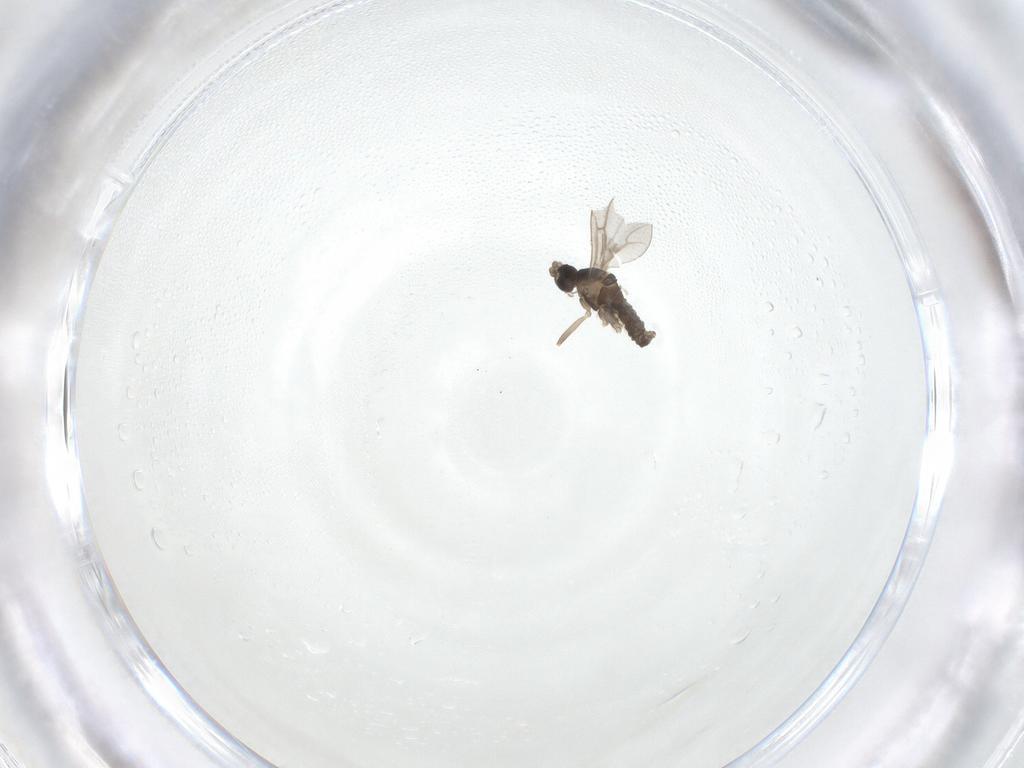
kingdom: Animalia
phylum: Arthropoda
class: Insecta
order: Diptera
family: Cecidomyiidae
